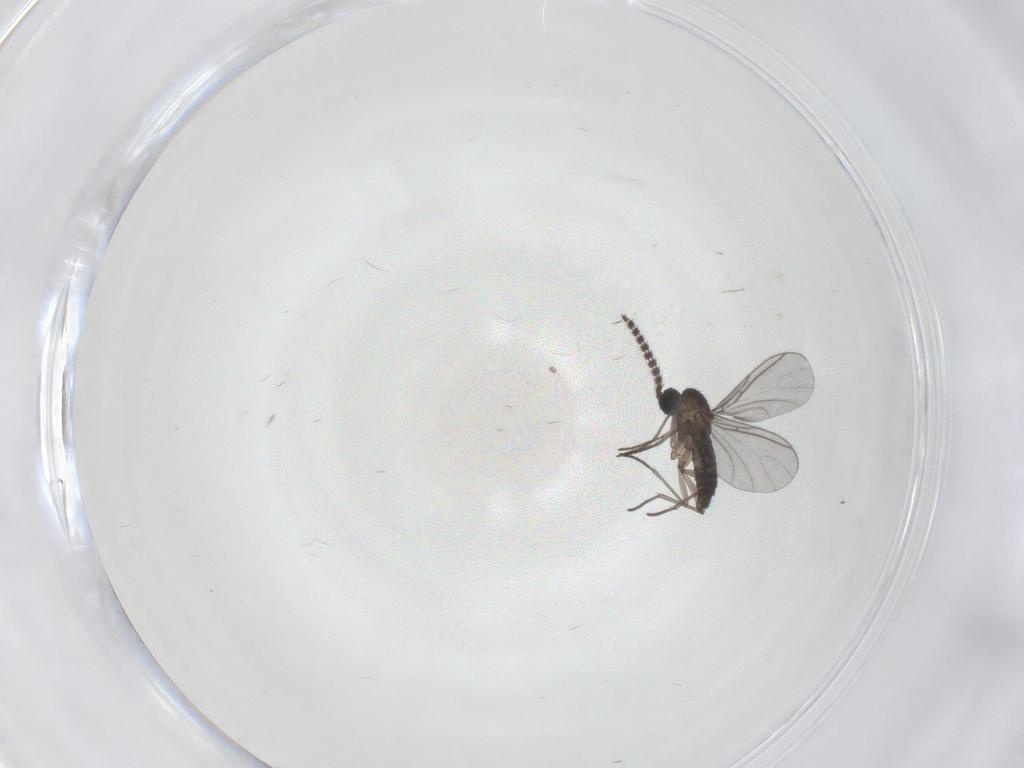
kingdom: Animalia
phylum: Arthropoda
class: Insecta
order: Diptera
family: Sciaridae
